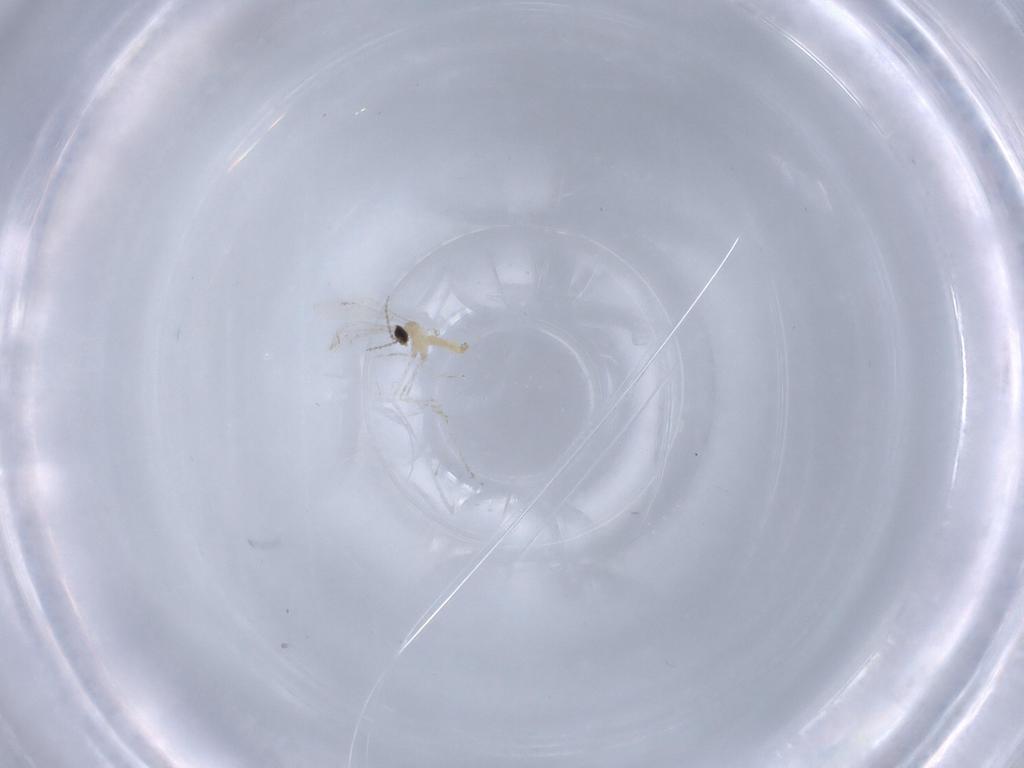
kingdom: Animalia
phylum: Arthropoda
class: Insecta
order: Diptera
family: Cecidomyiidae
